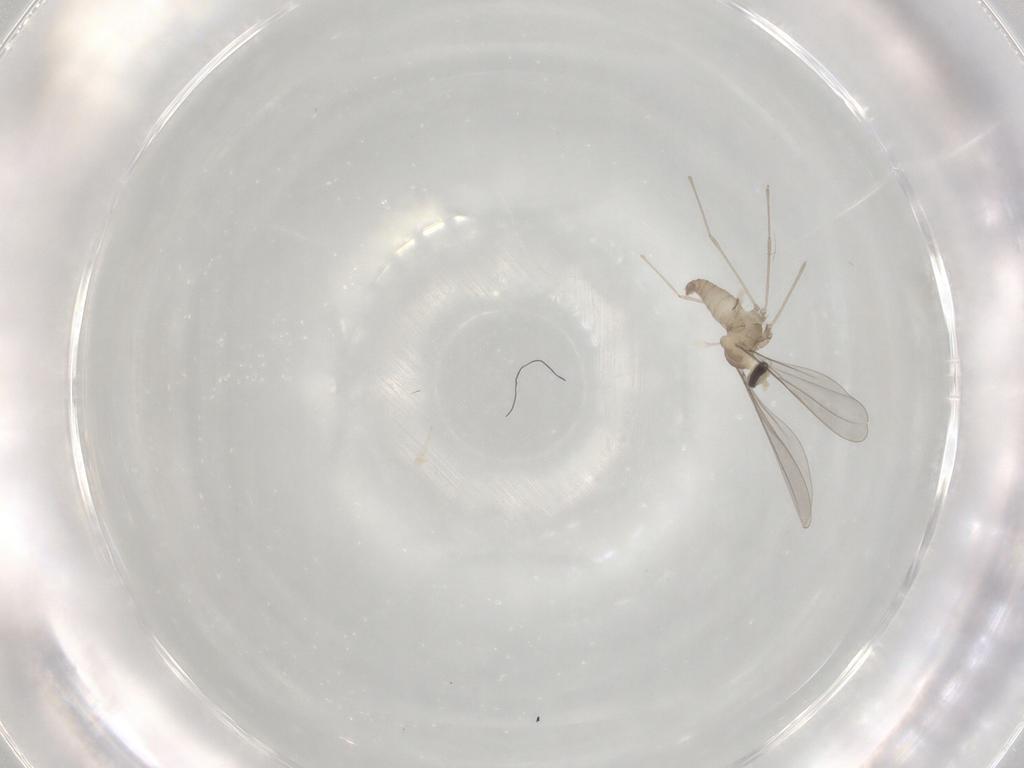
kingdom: Animalia
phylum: Arthropoda
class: Insecta
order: Diptera
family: Cecidomyiidae
